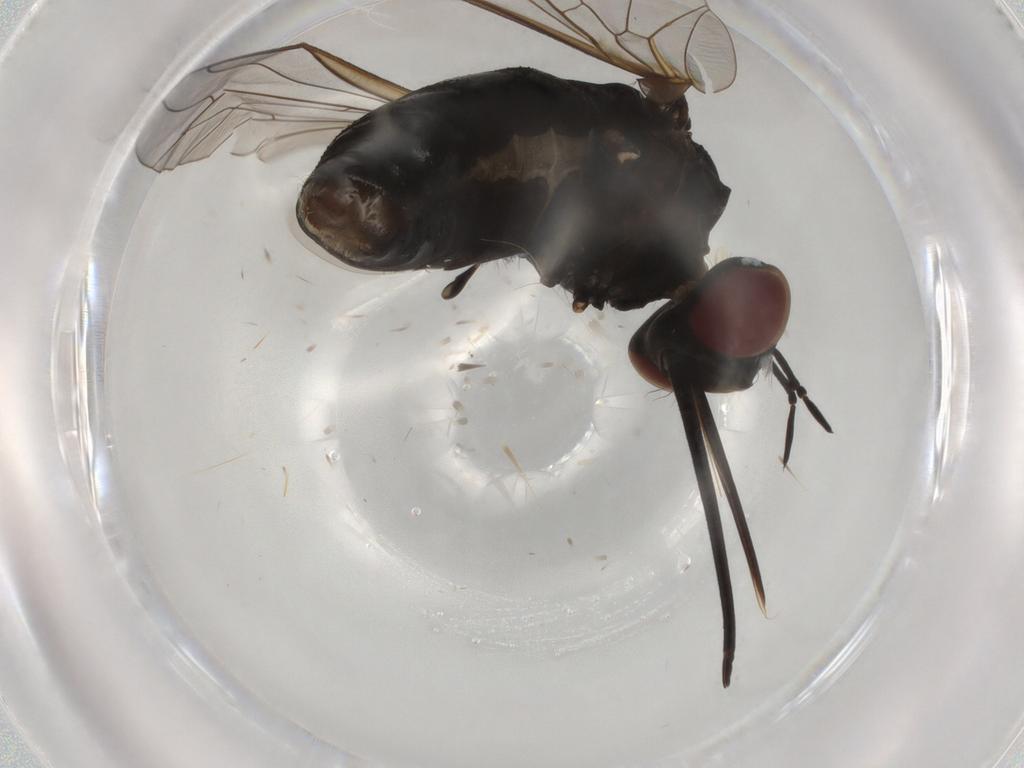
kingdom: Animalia
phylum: Arthropoda
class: Insecta
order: Diptera
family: Bombyliidae
